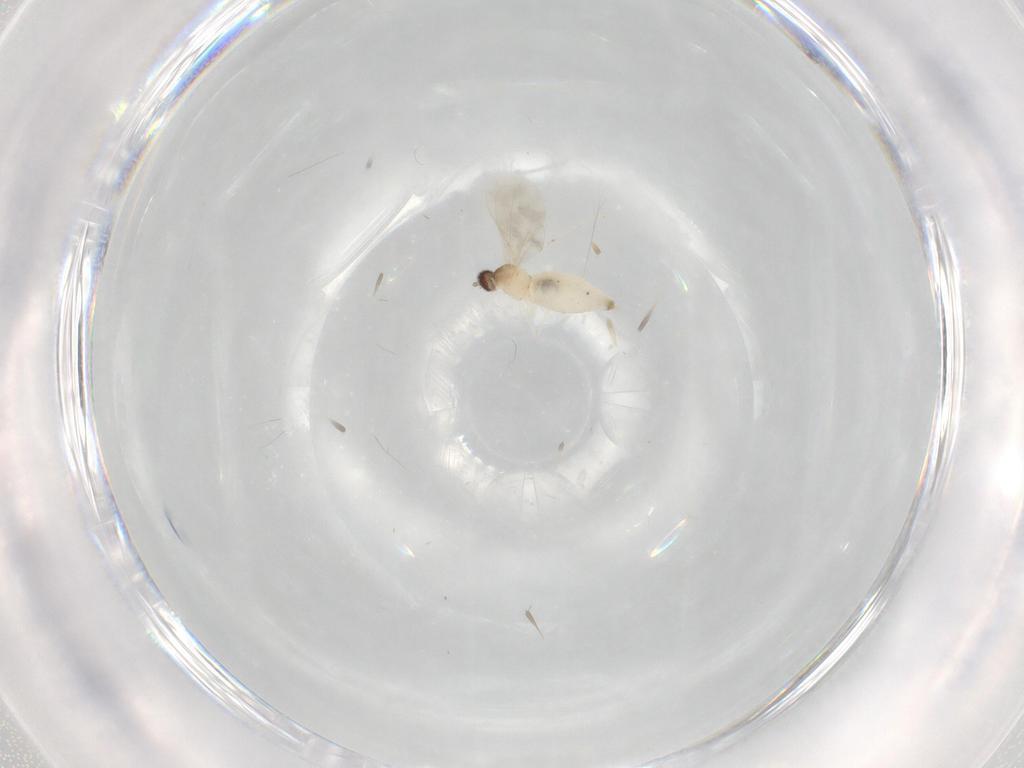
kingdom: Animalia
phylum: Arthropoda
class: Insecta
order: Diptera
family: Cecidomyiidae
